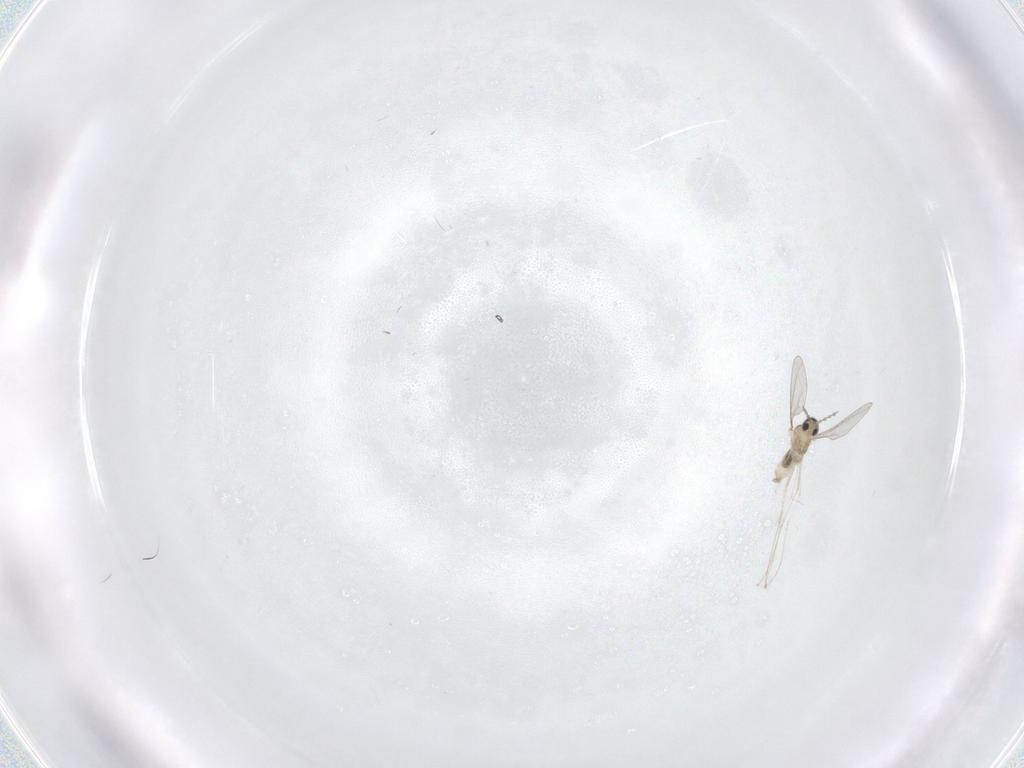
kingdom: Animalia
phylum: Arthropoda
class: Insecta
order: Diptera
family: Cecidomyiidae
